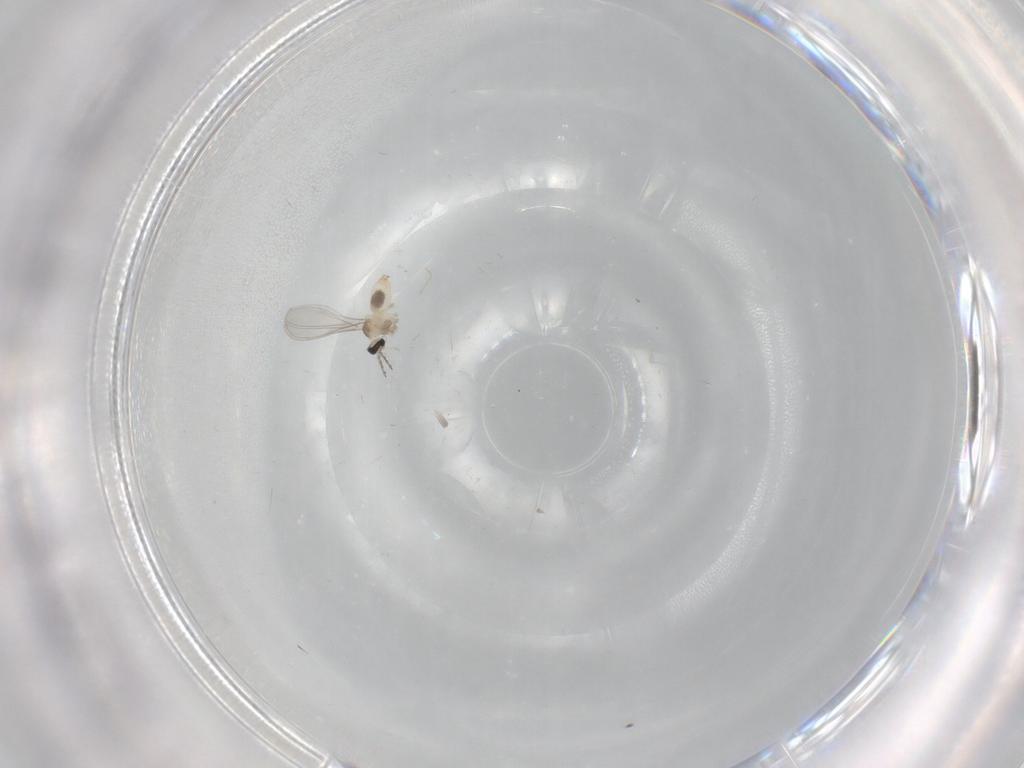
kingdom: Animalia
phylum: Arthropoda
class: Insecta
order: Diptera
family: Cecidomyiidae
